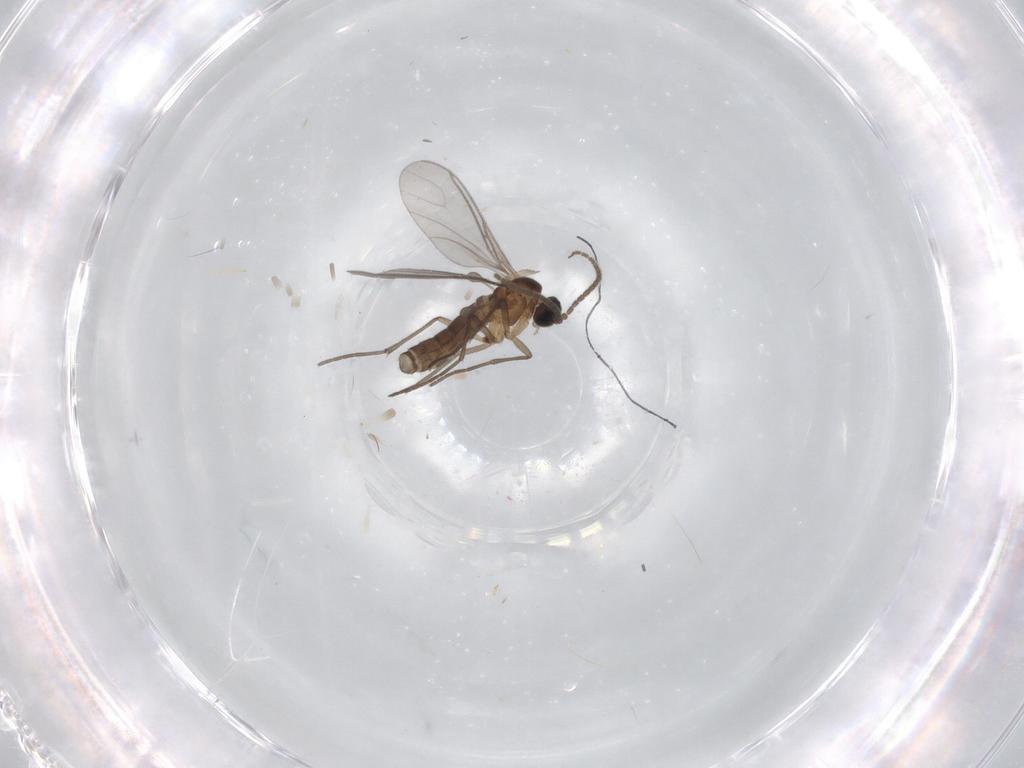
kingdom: Animalia
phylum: Arthropoda
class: Insecta
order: Diptera
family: Chironomidae
